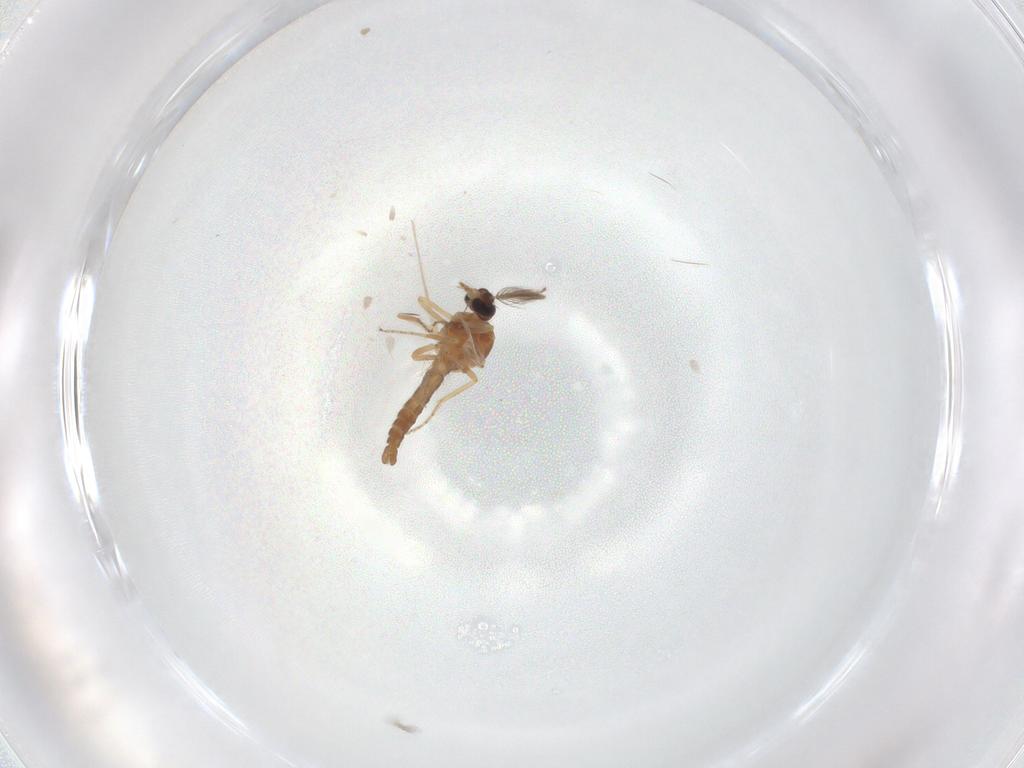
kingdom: Animalia
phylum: Arthropoda
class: Insecta
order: Diptera
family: Ceratopogonidae
